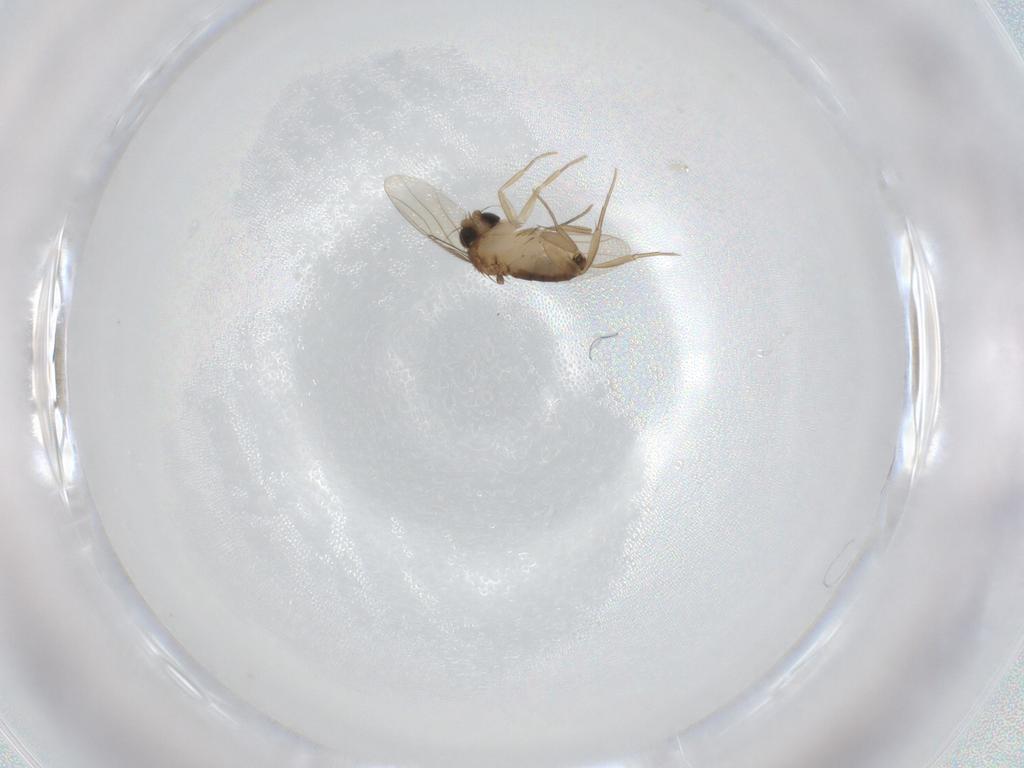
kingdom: Animalia
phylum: Arthropoda
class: Insecta
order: Diptera
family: Phoridae
